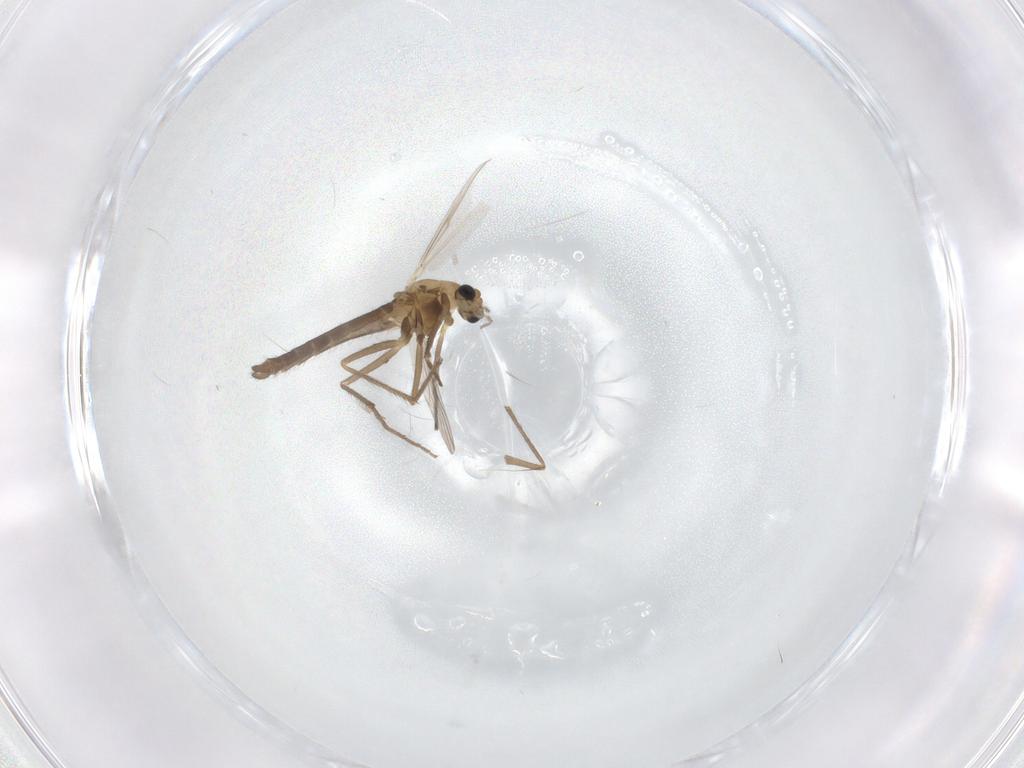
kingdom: Animalia
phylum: Arthropoda
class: Insecta
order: Diptera
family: Chironomidae
